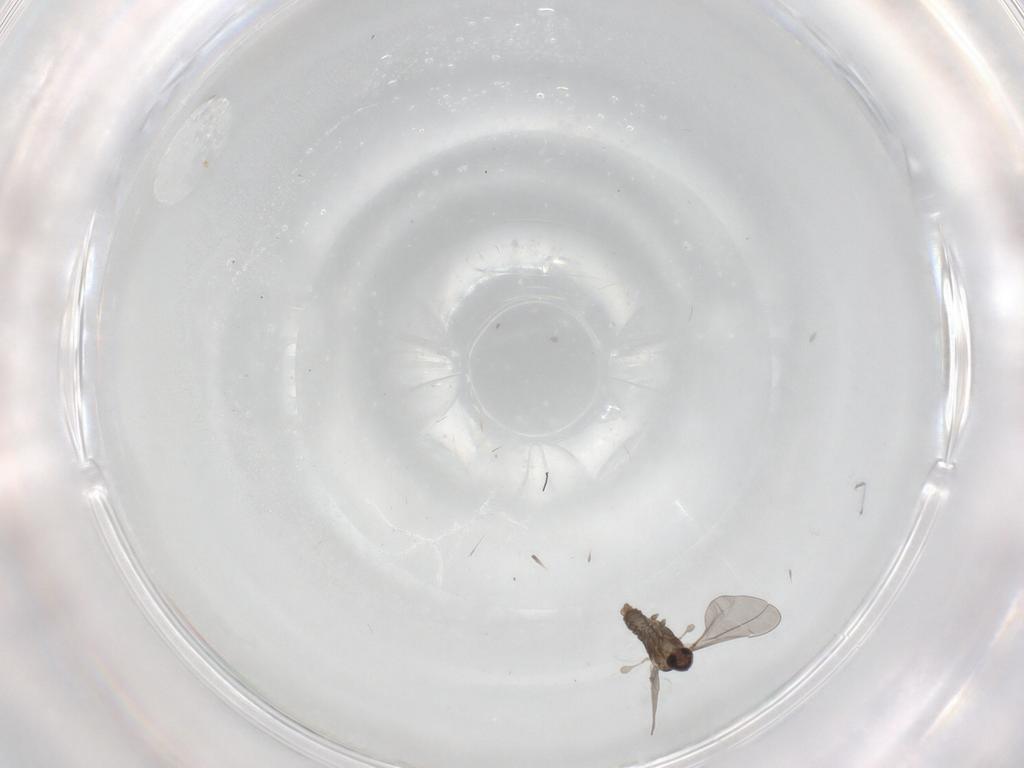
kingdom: Animalia
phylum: Arthropoda
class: Insecta
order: Diptera
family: Cecidomyiidae
